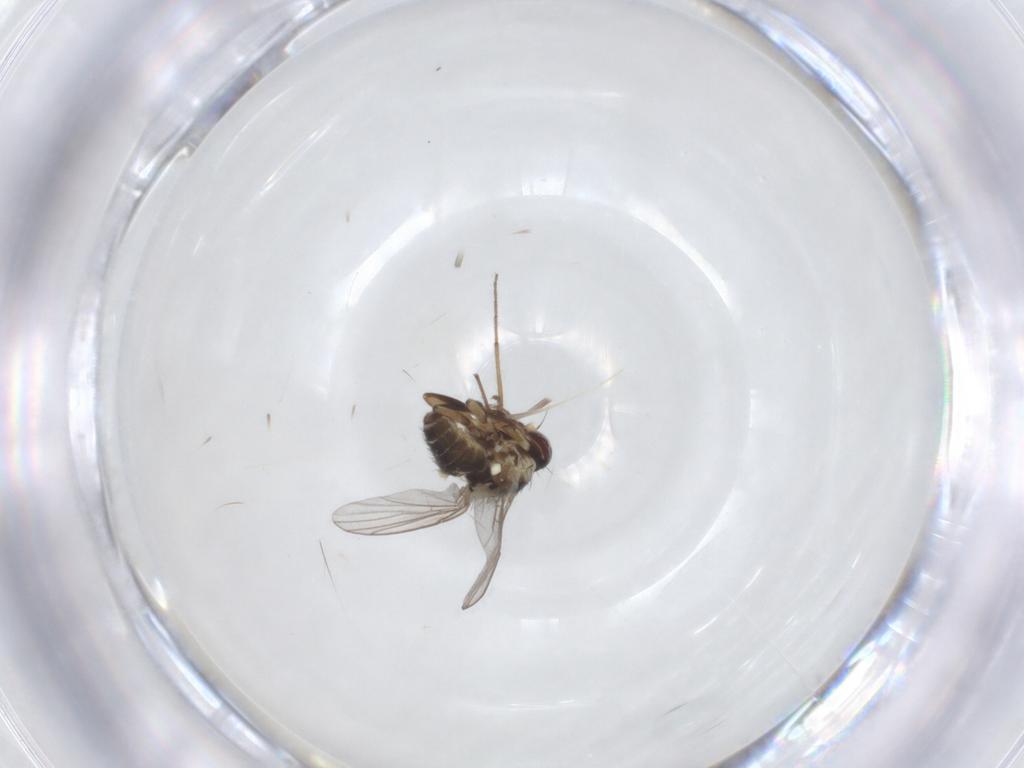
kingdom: Animalia
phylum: Arthropoda
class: Insecta
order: Diptera
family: Chironomidae
